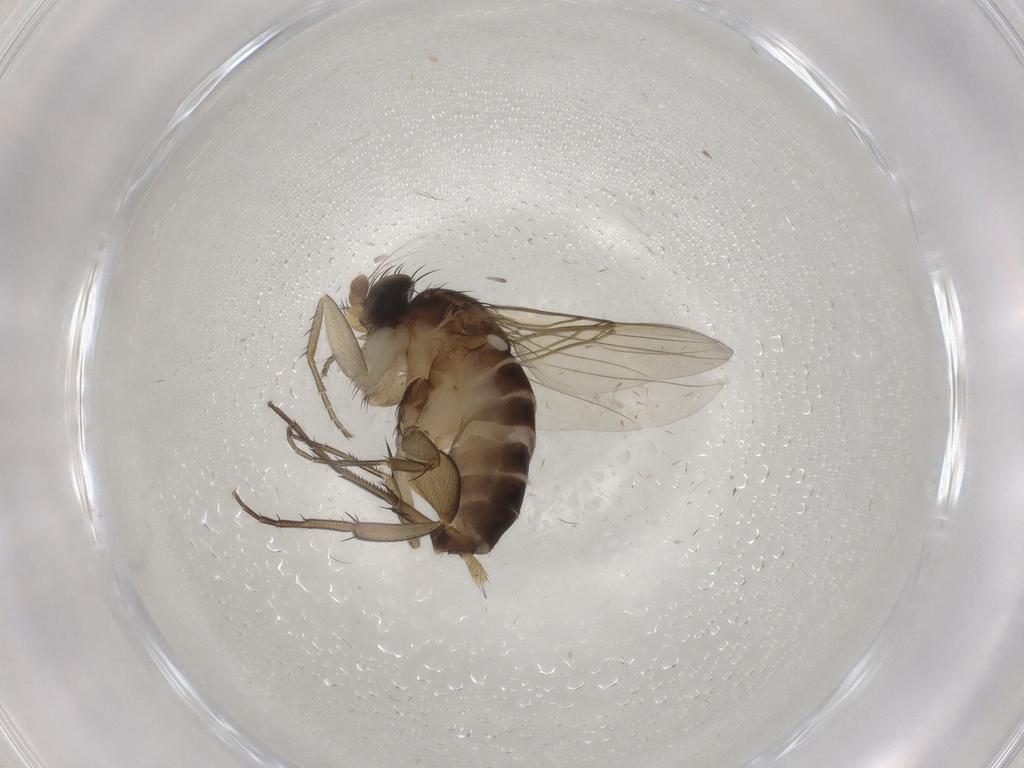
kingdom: Animalia
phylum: Arthropoda
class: Insecta
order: Diptera
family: Phoridae
